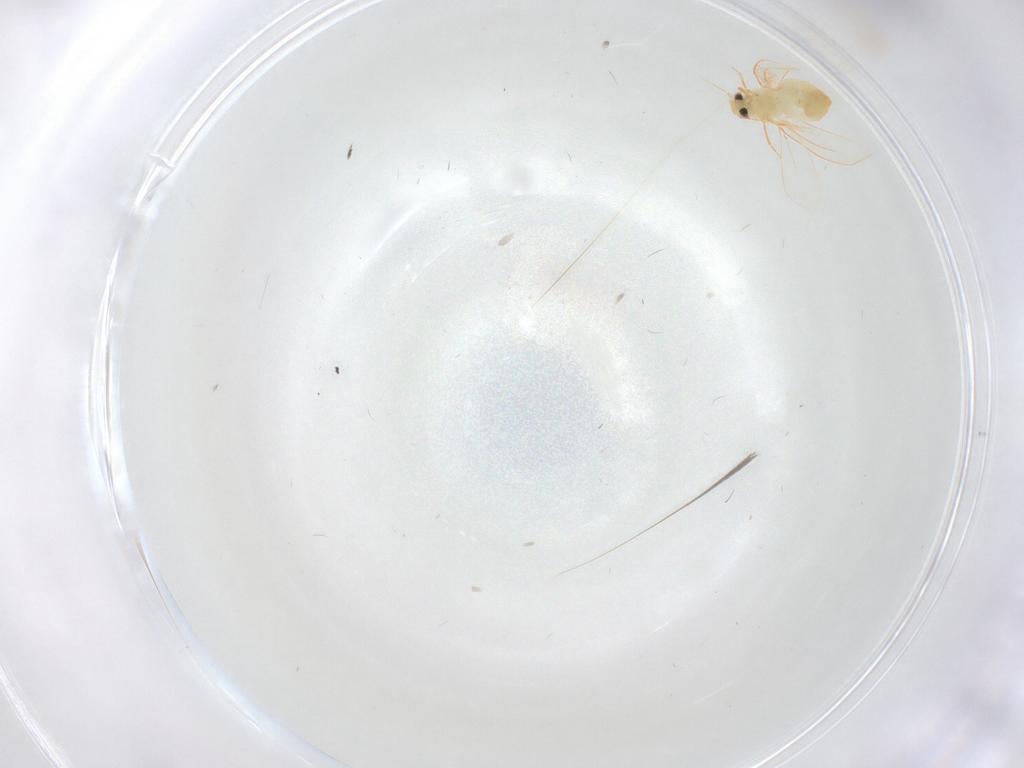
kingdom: Animalia
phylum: Arthropoda
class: Insecta
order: Hemiptera
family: Aleyrodidae
